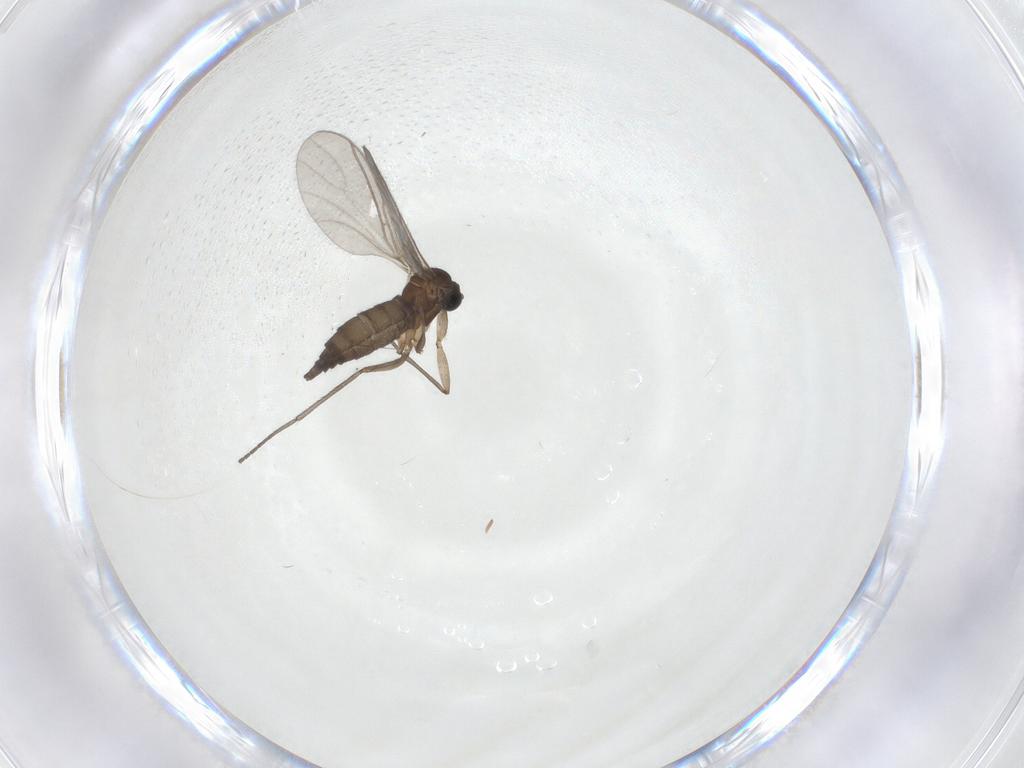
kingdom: Animalia
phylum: Arthropoda
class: Insecta
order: Diptera
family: Sciaridae
